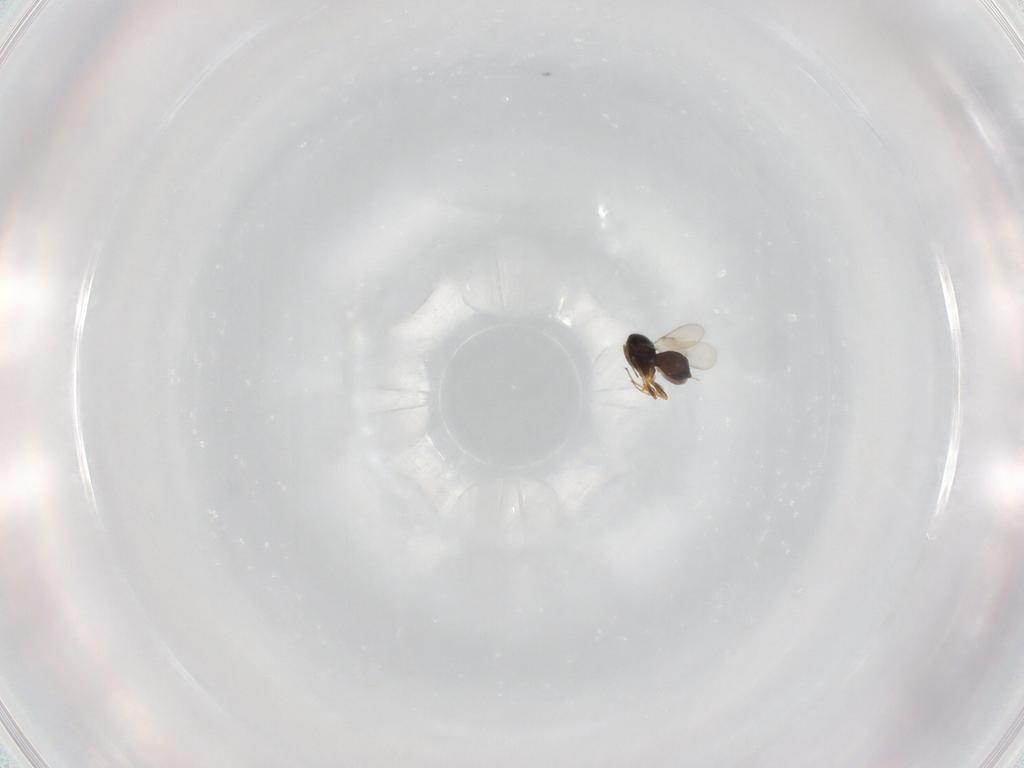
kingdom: Animalia
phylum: Arthropoda
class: Insecta
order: Hymenoptera
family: Scelionidae
